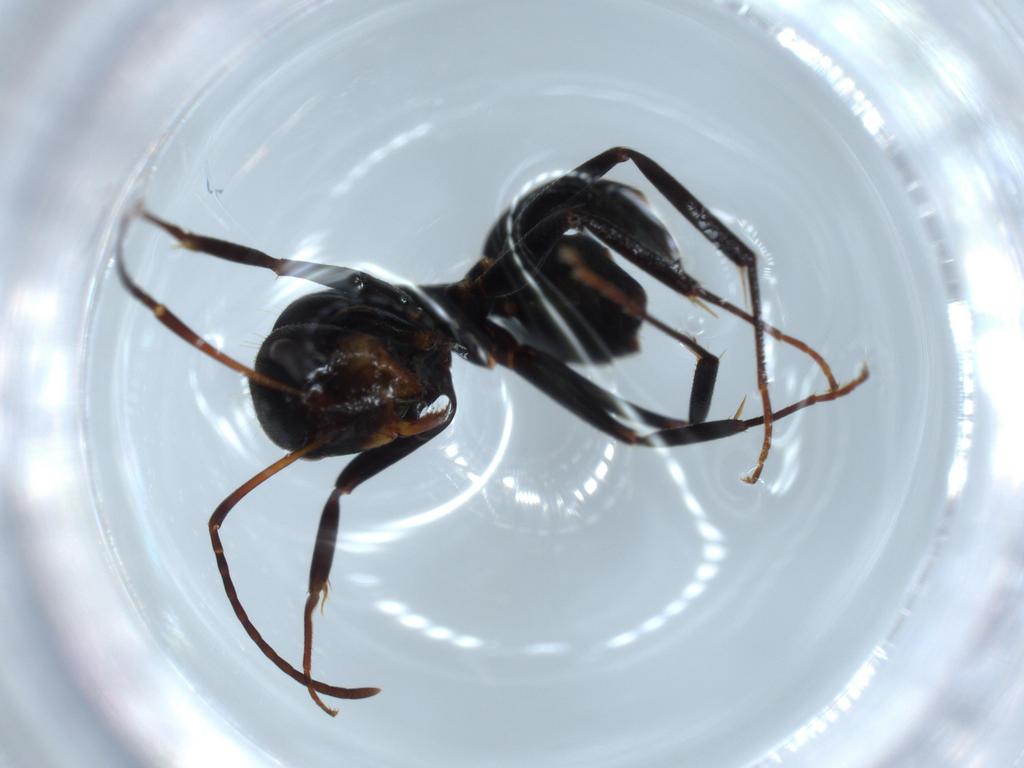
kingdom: Animalia
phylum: Arthropoda
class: Insecta
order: Hymenoptera
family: Formicidae
